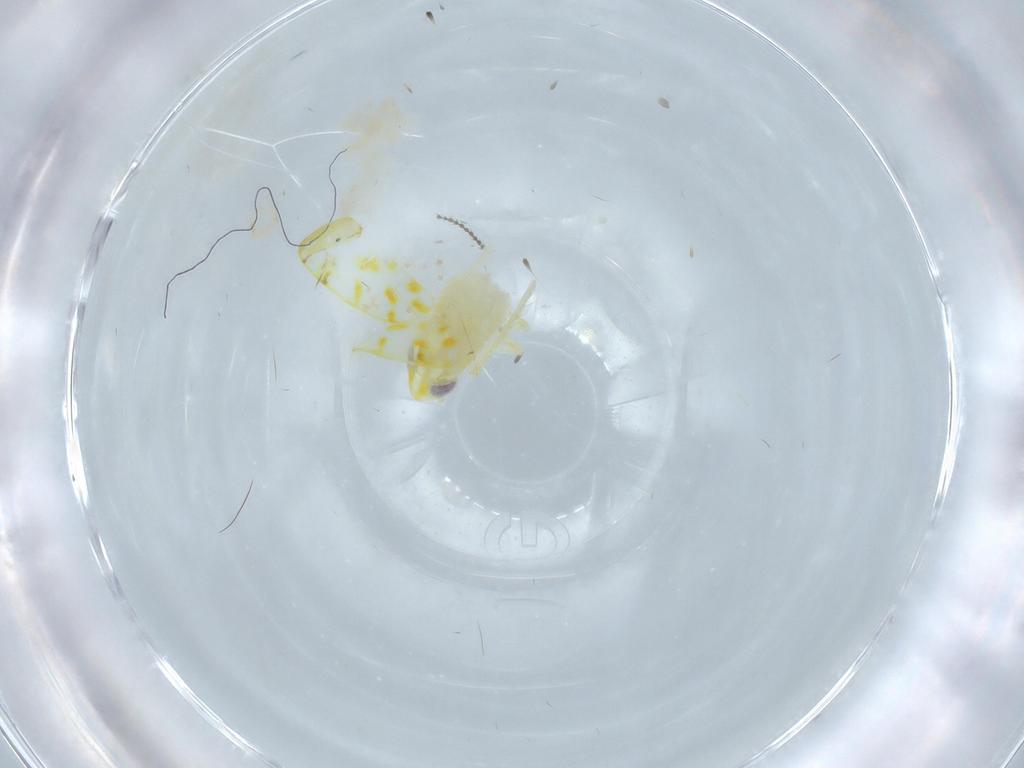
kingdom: Animalia
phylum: Arthropoda
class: Insecta
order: Hemiptera
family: Cicadellidae
